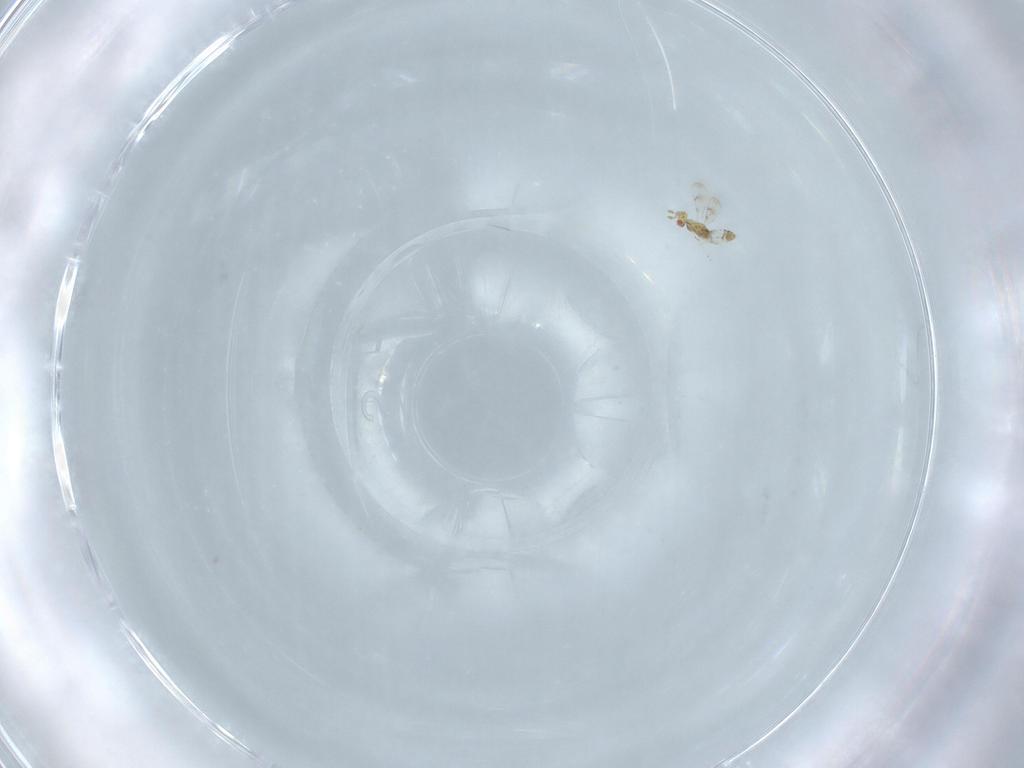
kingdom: Animalia
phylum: Arthropoda
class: Insecta
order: Hymenoptera
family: Eulophidae
